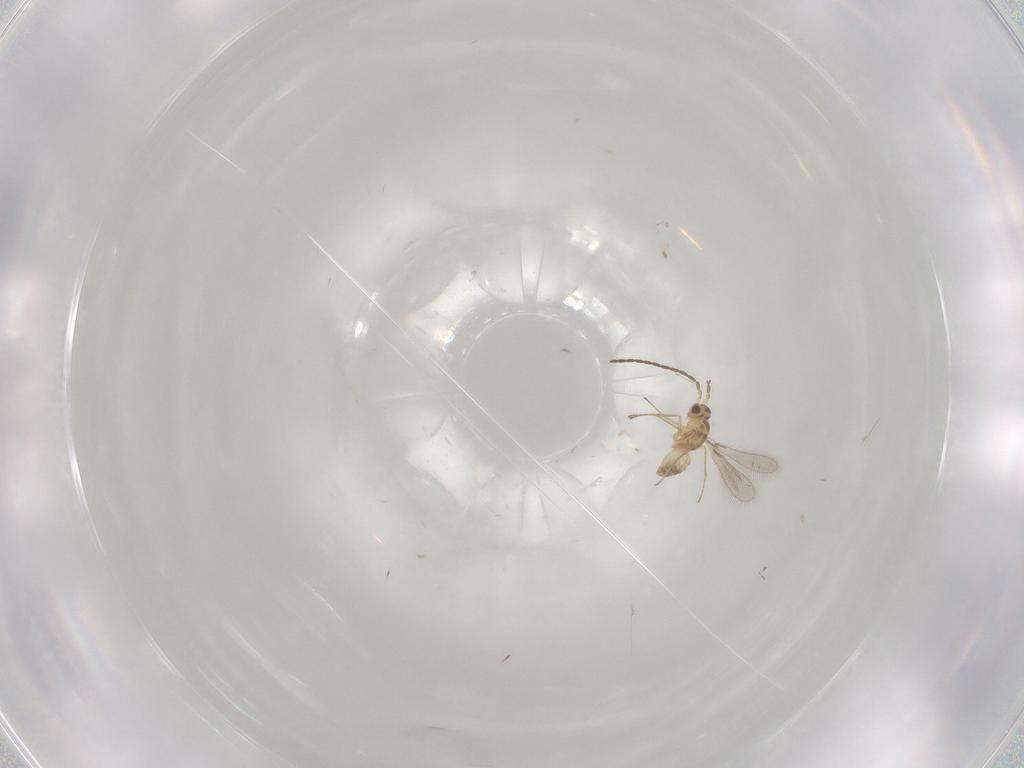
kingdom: Animalia
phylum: Arthropoda
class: Insecta
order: Hymenoptera
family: Mymaridae
